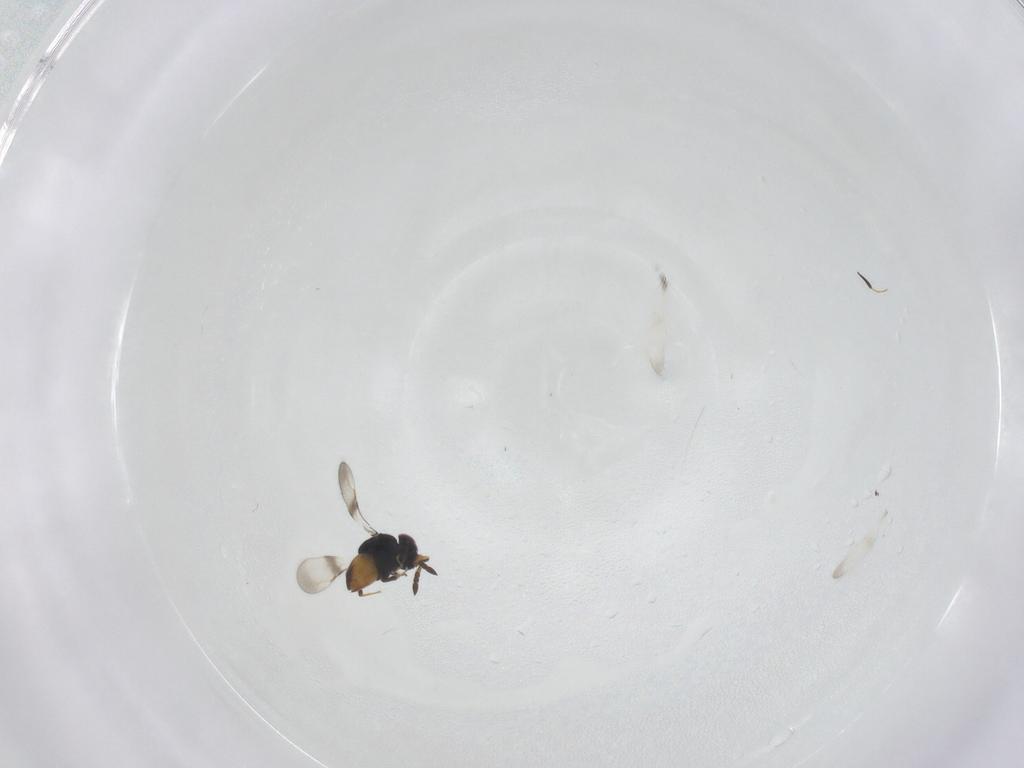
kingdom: Animalia
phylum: Arthropoda
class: Insecta
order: Hymenoptera
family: Ceraphronidae
